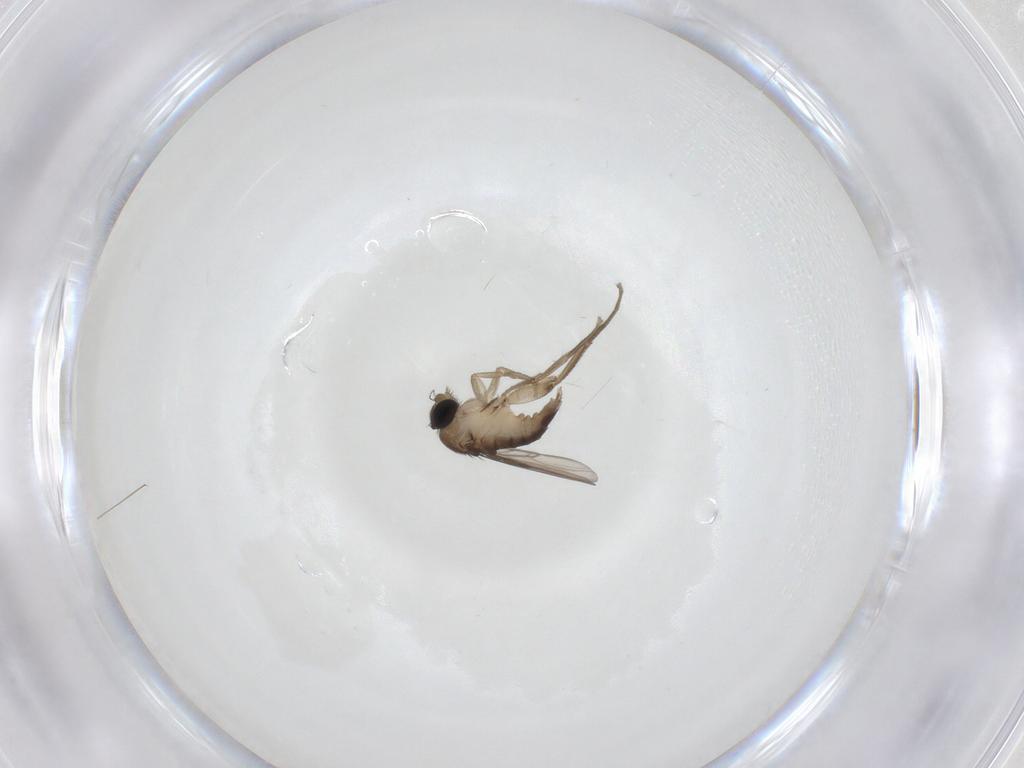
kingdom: Animalia
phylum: Arthropoda
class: Insecta
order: Diptera
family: Phoridae
